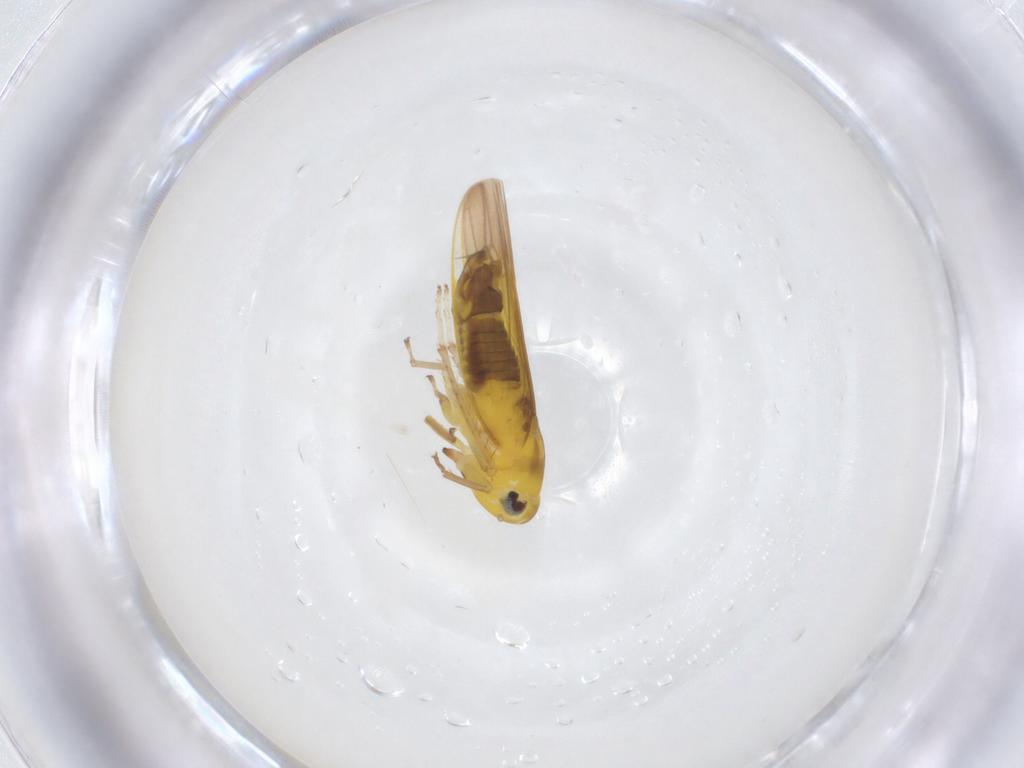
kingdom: Animalia
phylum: Arthropoda
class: Insecta
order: Hemiptera
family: Cicadellidae
